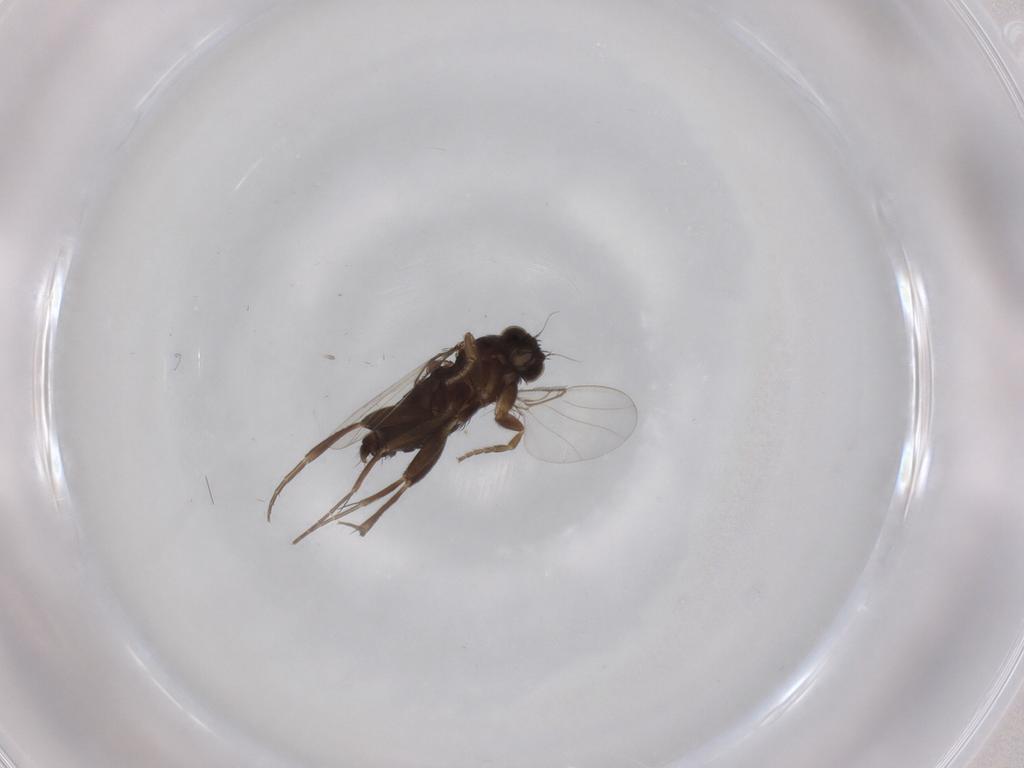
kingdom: Animalia
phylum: Arthropoda
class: Insecta
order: Diptera
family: Phoridae
